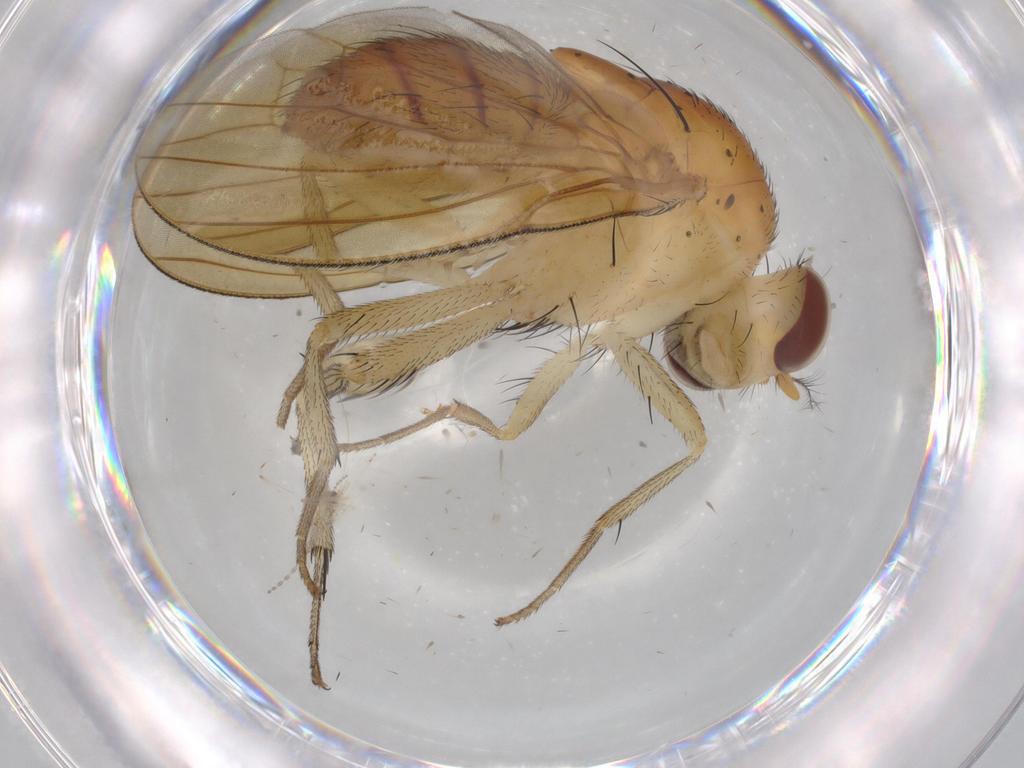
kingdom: Animalia
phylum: Arthropoda
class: Insecta
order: Diptera
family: Cecidomyiidae
